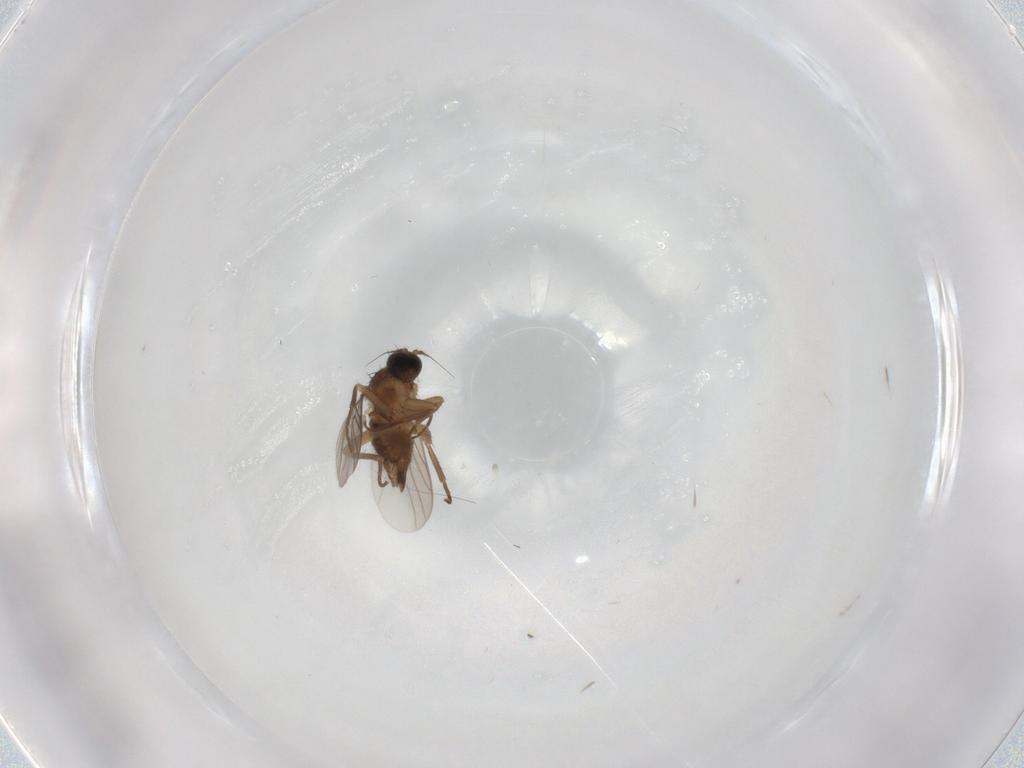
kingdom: Animalia
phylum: Arthropoda
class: Insecta
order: Diptera
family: Hybotidae
